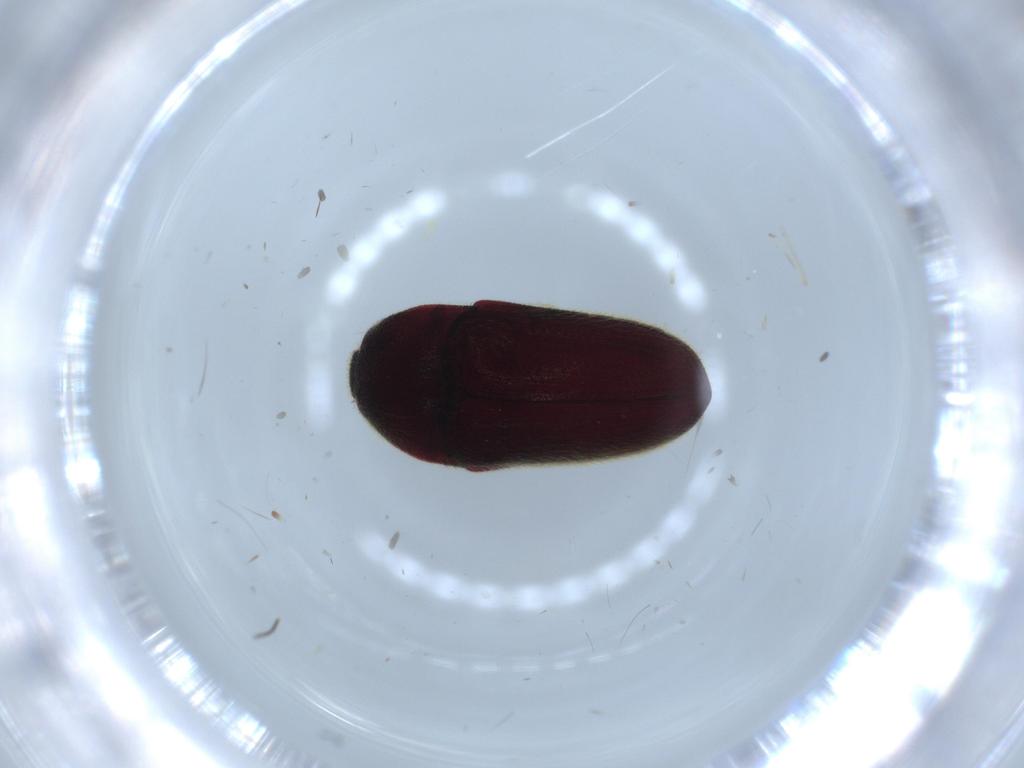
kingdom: Animalia
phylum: Arthropoda
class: Insecta
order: Coleoptera
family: Throscidae
